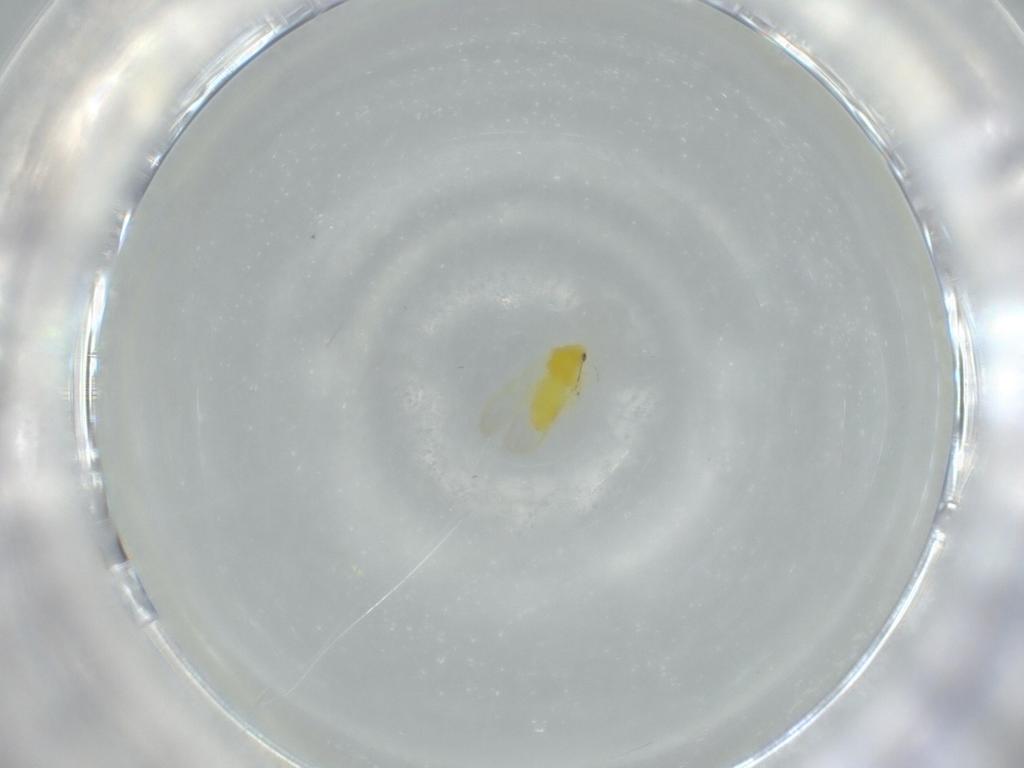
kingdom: Animalia
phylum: Arthropoda
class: Insecta
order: Hemiptera
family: Aleyrodidae
